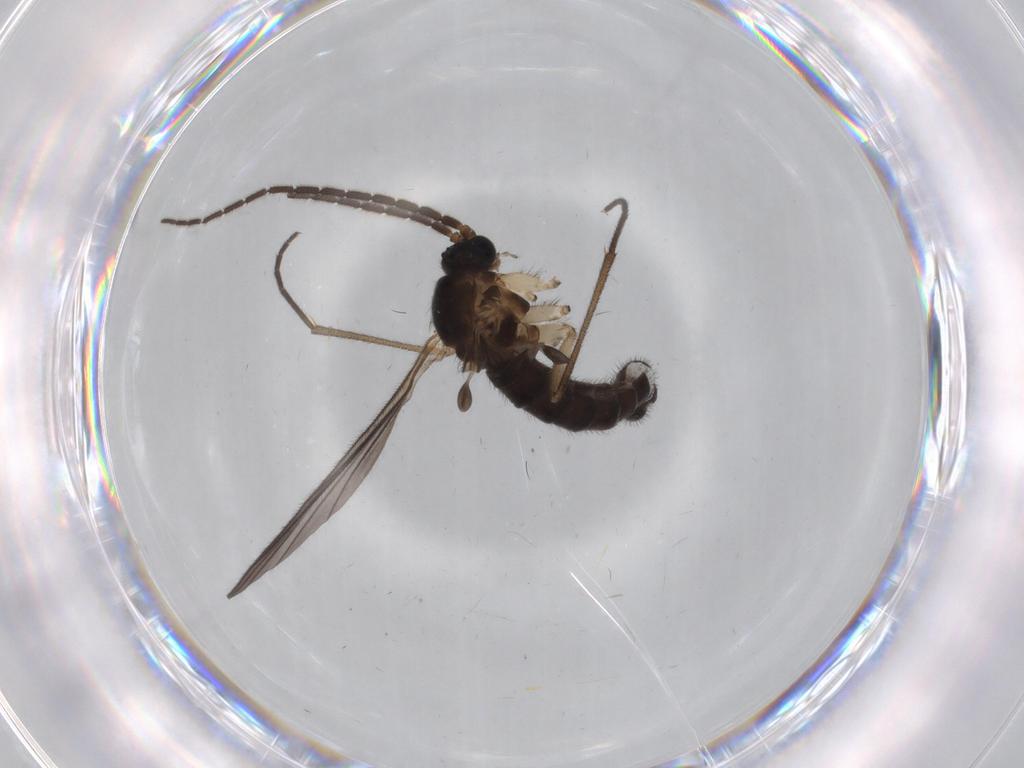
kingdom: Animalia
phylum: Arthropoda
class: Insecta
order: Diptera
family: Sciaridae
